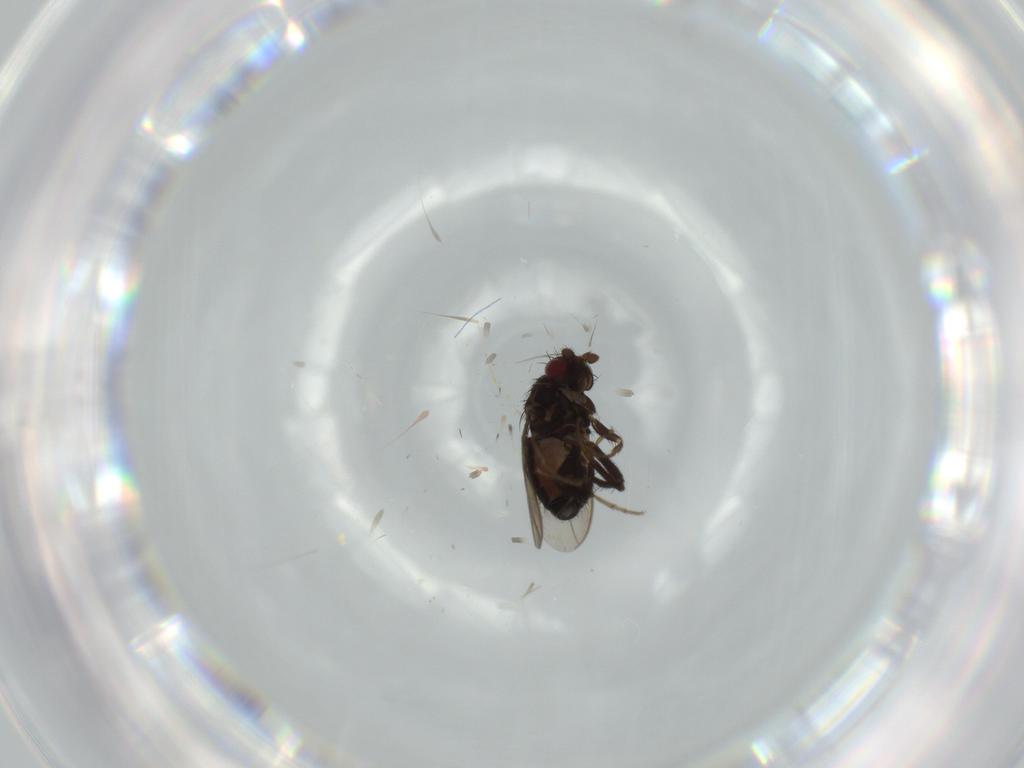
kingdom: Animalia
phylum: Arthropoda
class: Insecta
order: Diptera
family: Sphaeroceridae
